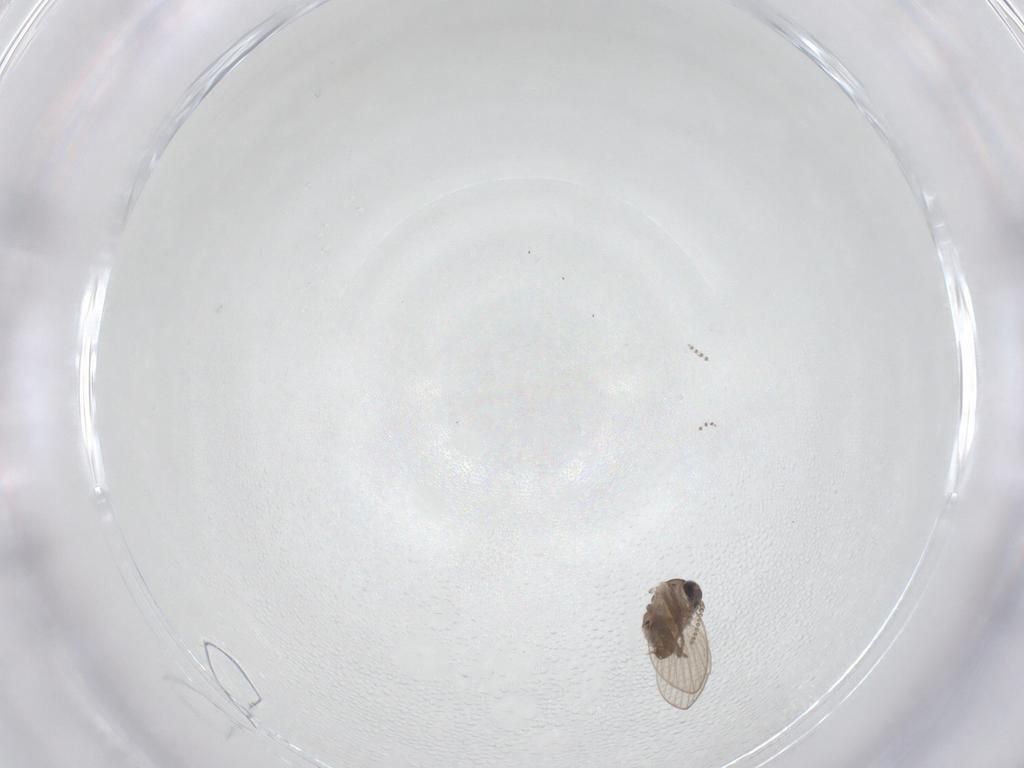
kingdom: Animalia
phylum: Arthropoda
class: Insecta
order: Diptera
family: Psychodidae
